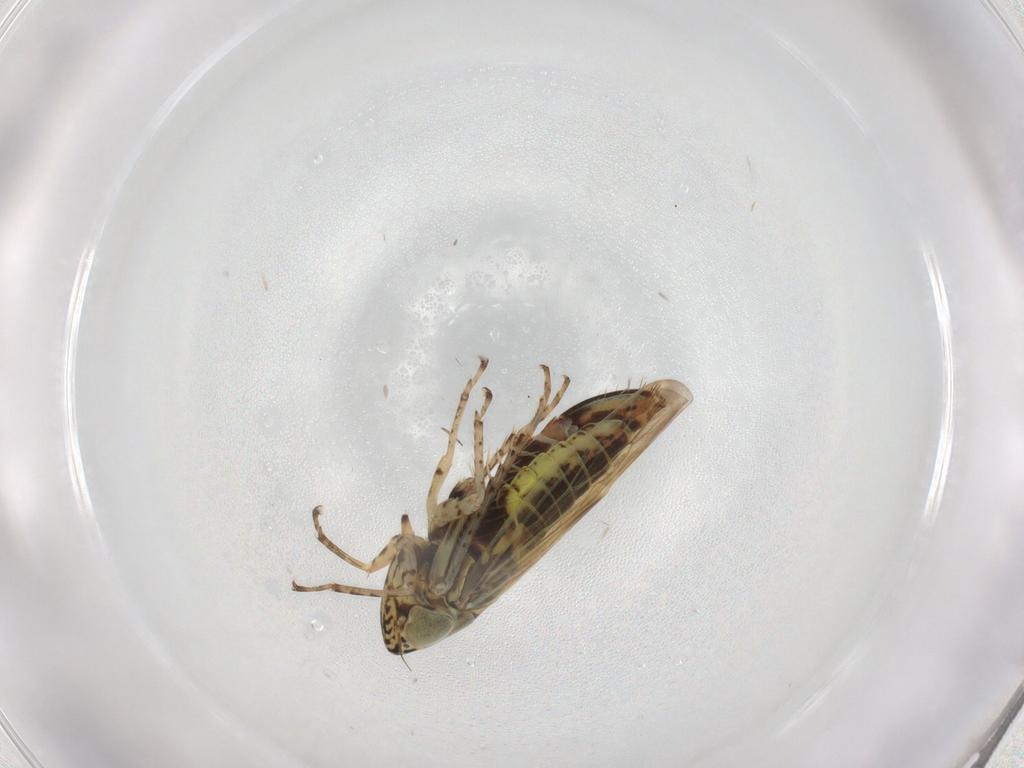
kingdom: Animalia
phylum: Arthropoda
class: Insecta
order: Hemiptera
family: Cicadellidae
